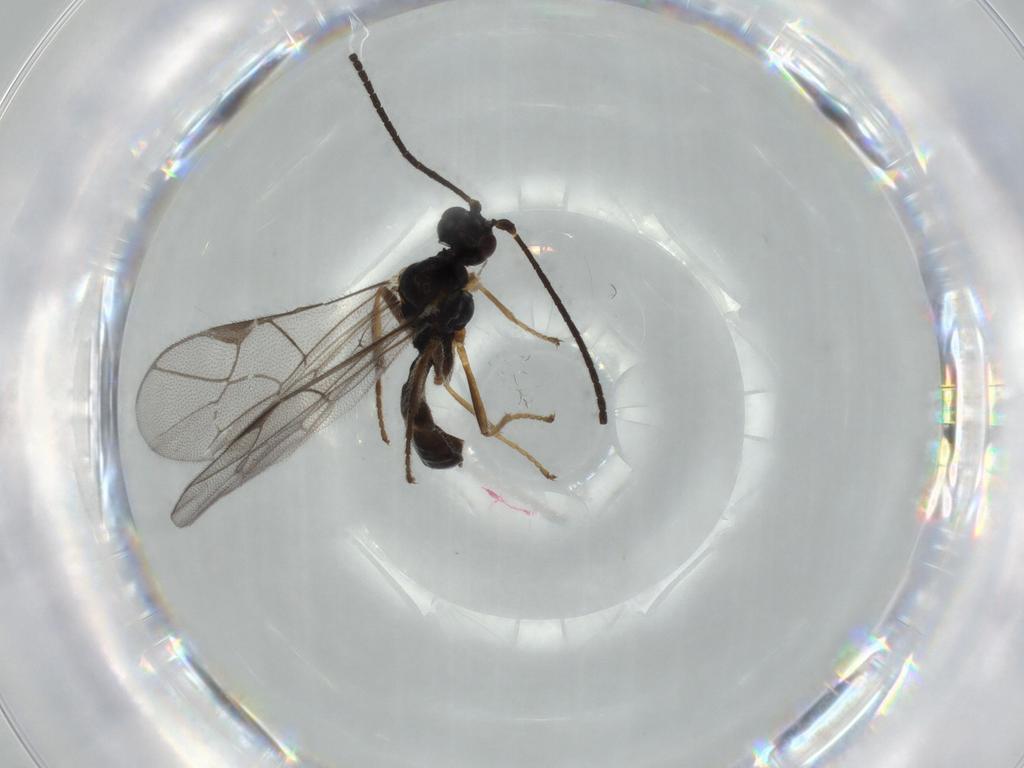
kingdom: Animalia
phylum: Arthropoda
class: Insecta
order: Hymenoptera
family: Ichneumonidae
